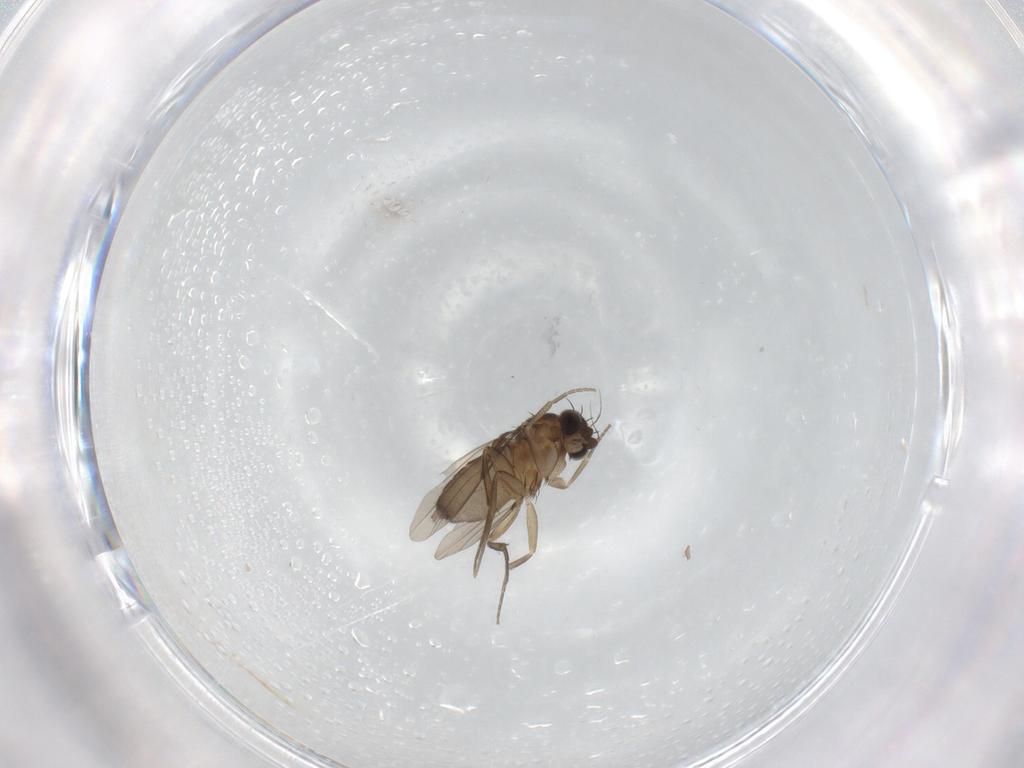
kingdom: Animalia
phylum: Arthropoda
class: Insecta
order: Diptera
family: Phoridae
